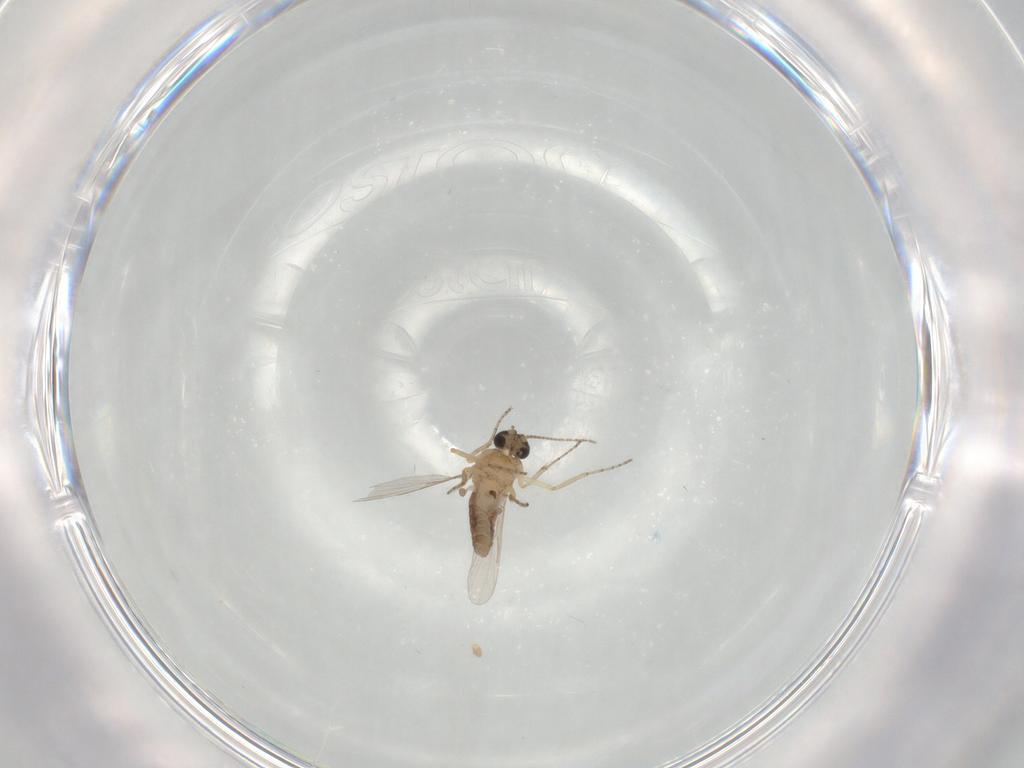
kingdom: Animalia
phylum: Arthropoda
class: Insecta
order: Diptera
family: Ceratopogonidae
